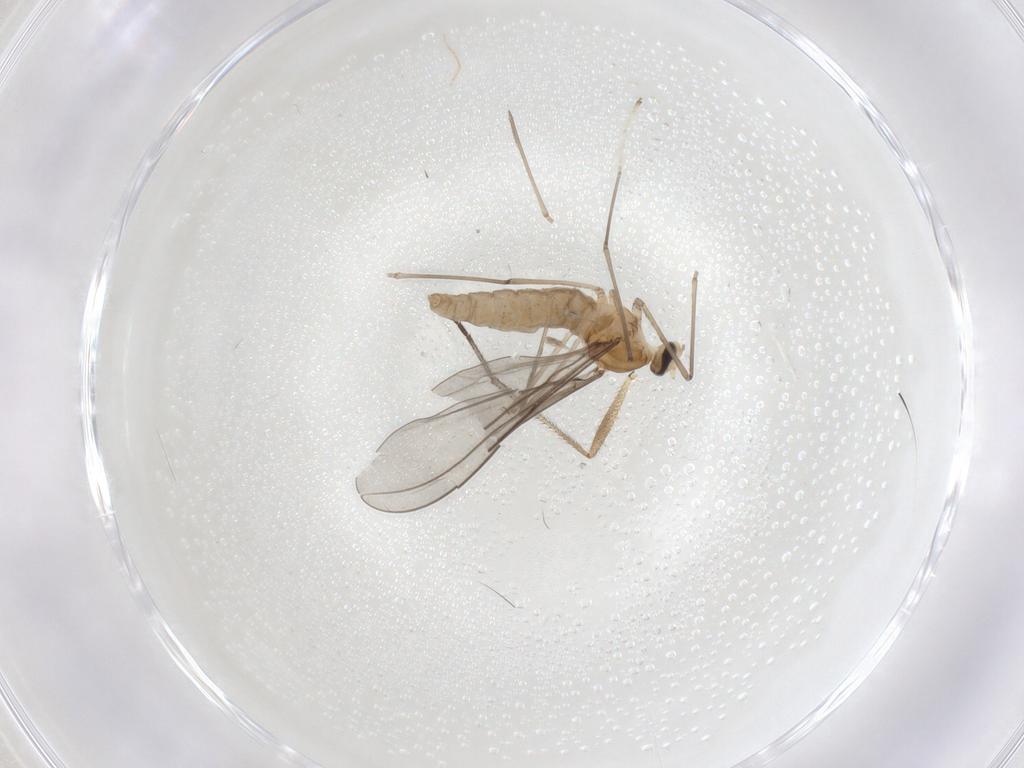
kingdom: Animalia
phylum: Arthropoda
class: Insecta
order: Diptera
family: Sciaridae
